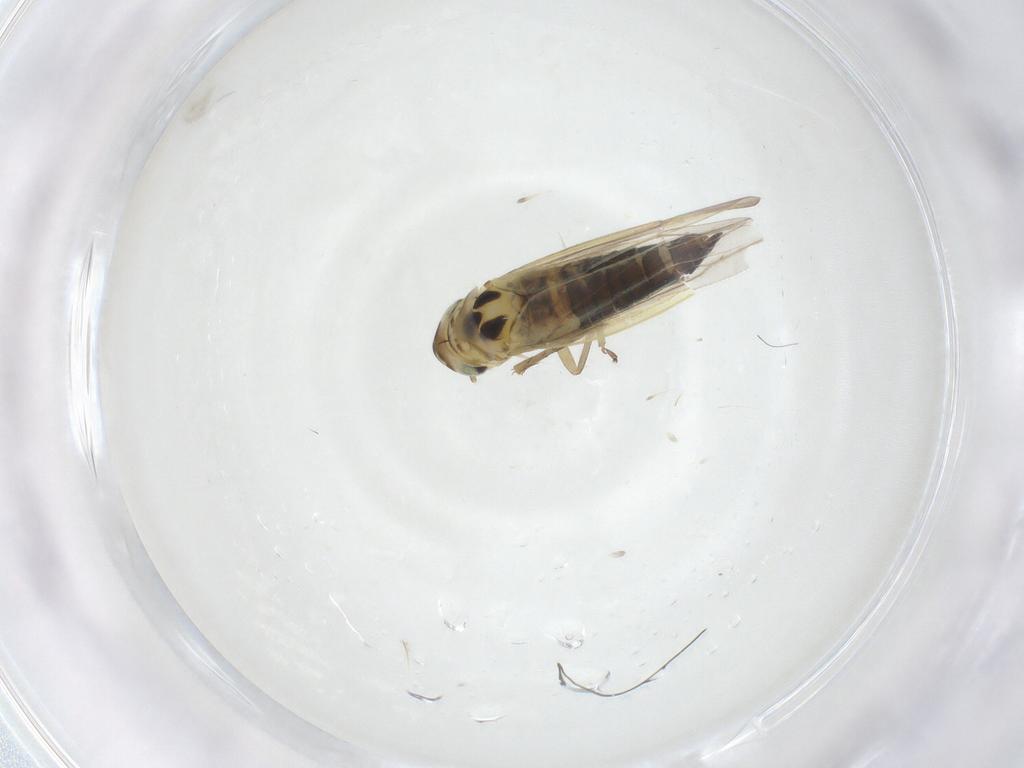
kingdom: Animalia
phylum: Arthropoda
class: Insecta
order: Hemiptera
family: Cicadellidae
